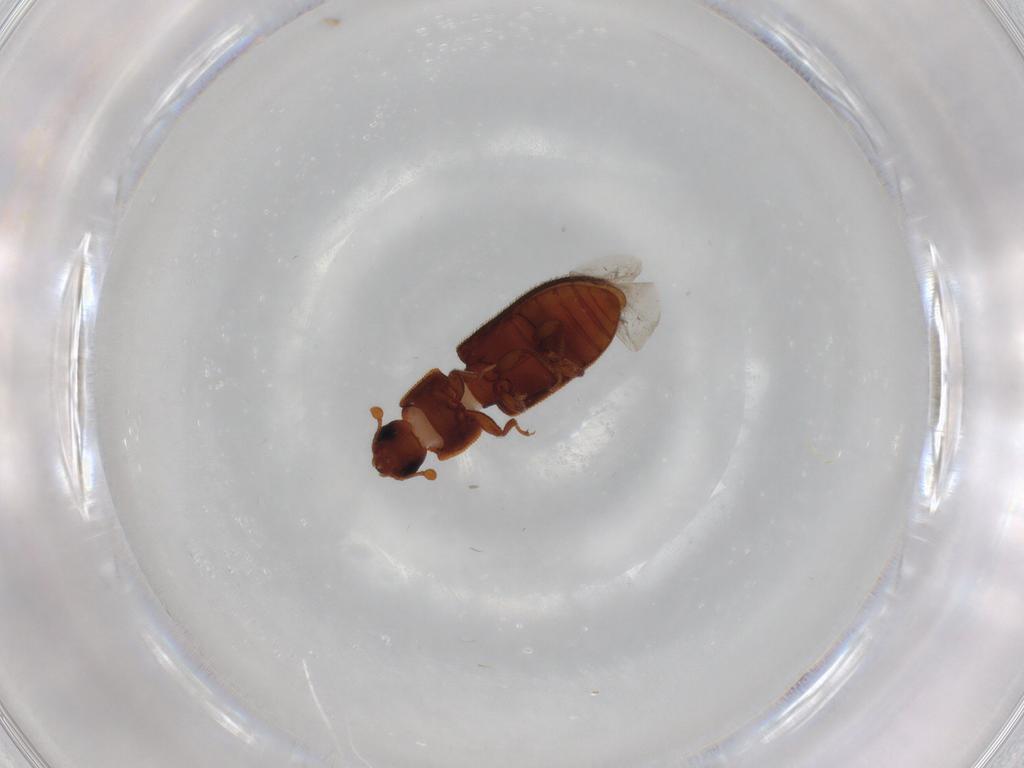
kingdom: Animalia
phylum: Arthropoda
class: Insecta
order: Coleoptera
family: Zopheridae
